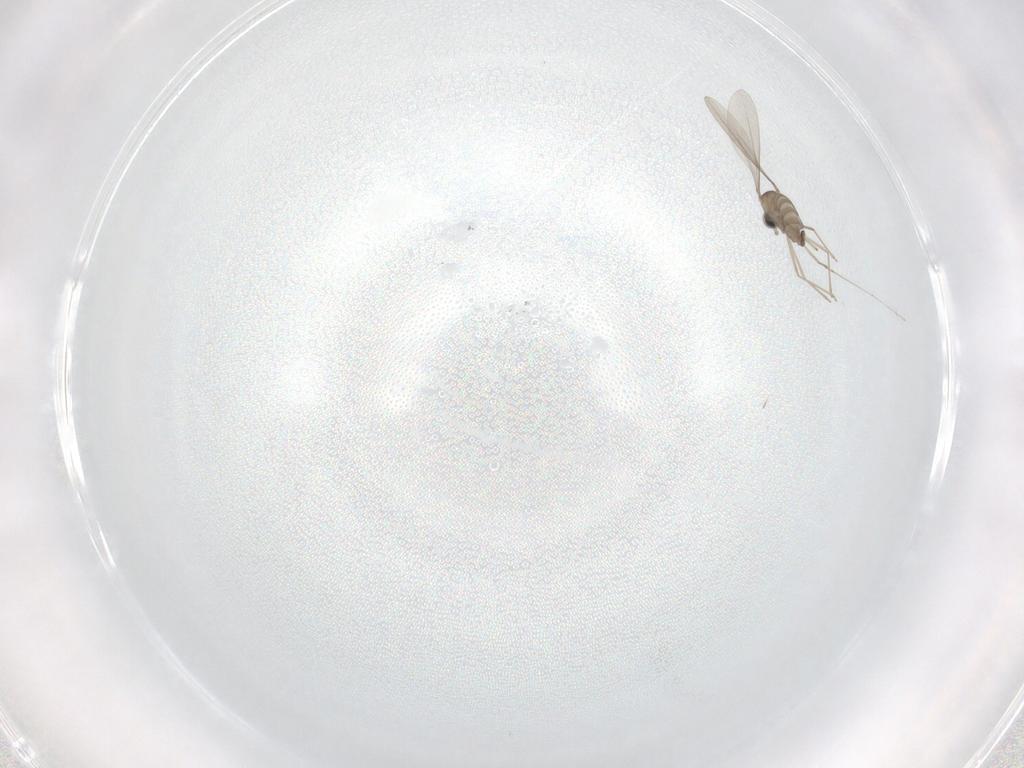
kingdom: Animalia
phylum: Arthropoda
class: Insecta
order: Diptera
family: Cecidomyiidae
